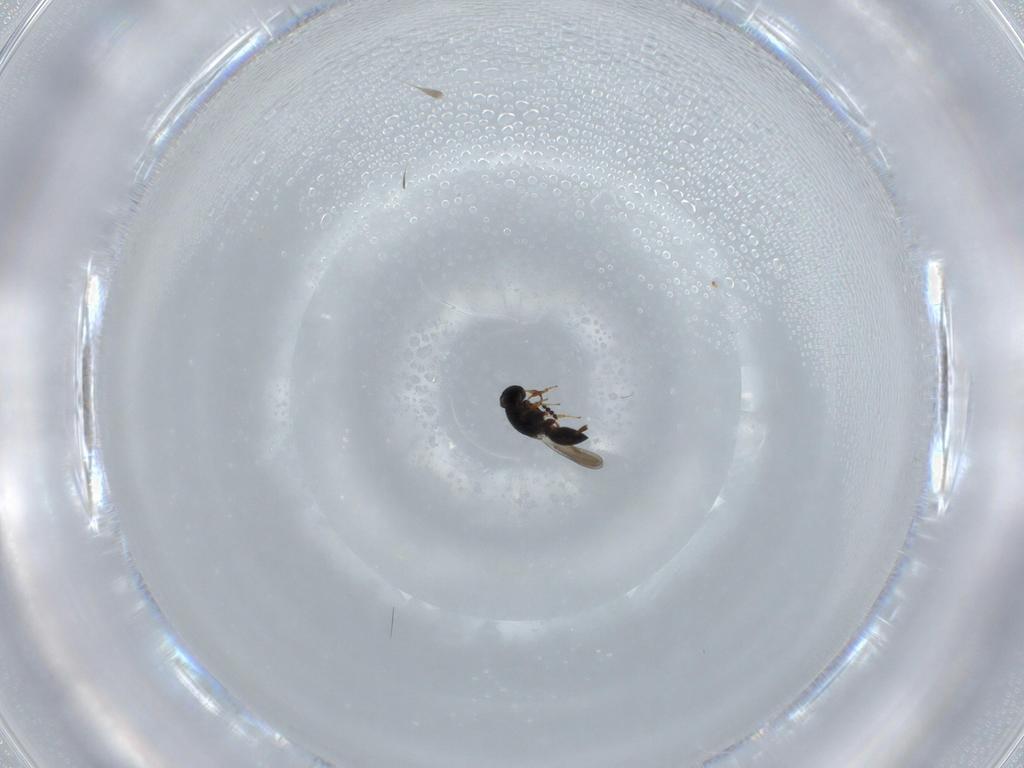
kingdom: Animalia
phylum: Arthropoda
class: Insecta
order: Hymenoptera
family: Platygastridae
